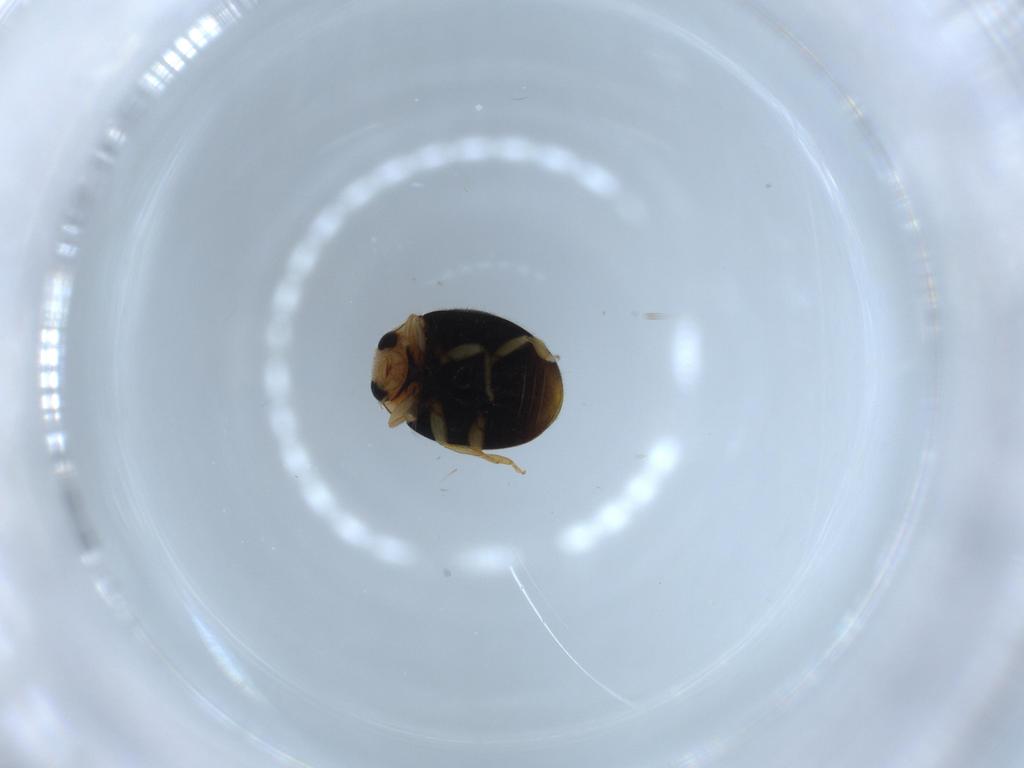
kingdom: Animalia
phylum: Arthropoda
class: Insecta
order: Coleoptera
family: Coccinellidae
